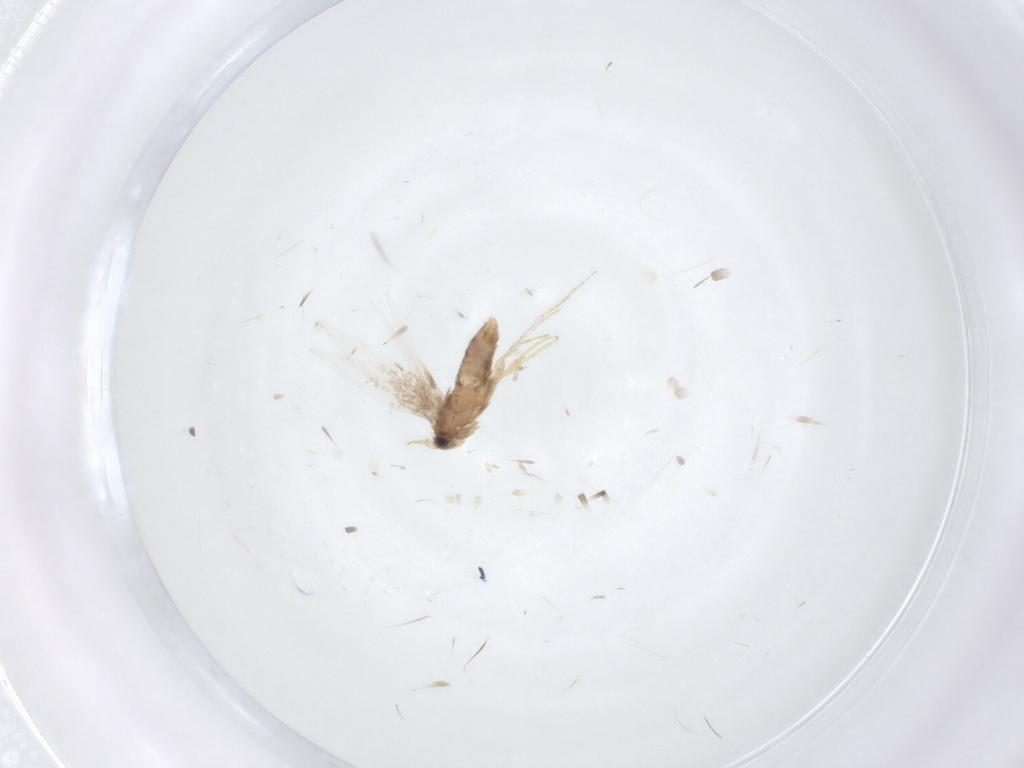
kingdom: Animalia
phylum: Arthropoda
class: Insecta
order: Lepidoptera
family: Nepticulidae
